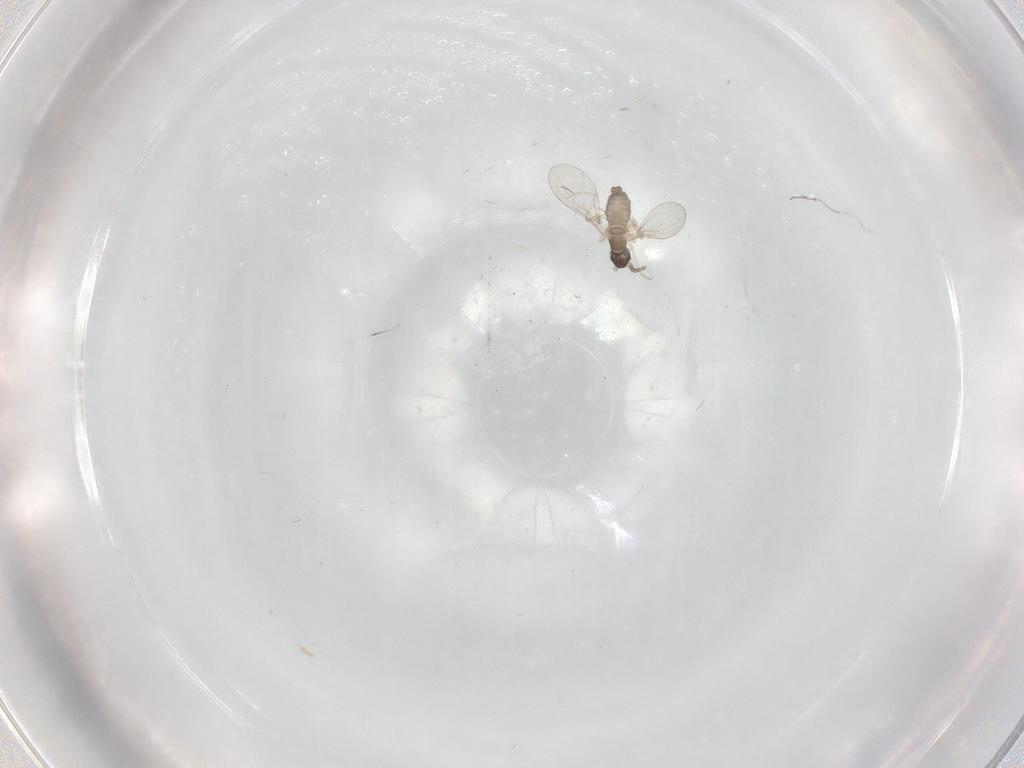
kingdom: Animalia
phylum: Arthropoda
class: Insecta
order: Diptera
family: Cecidomyiidae
